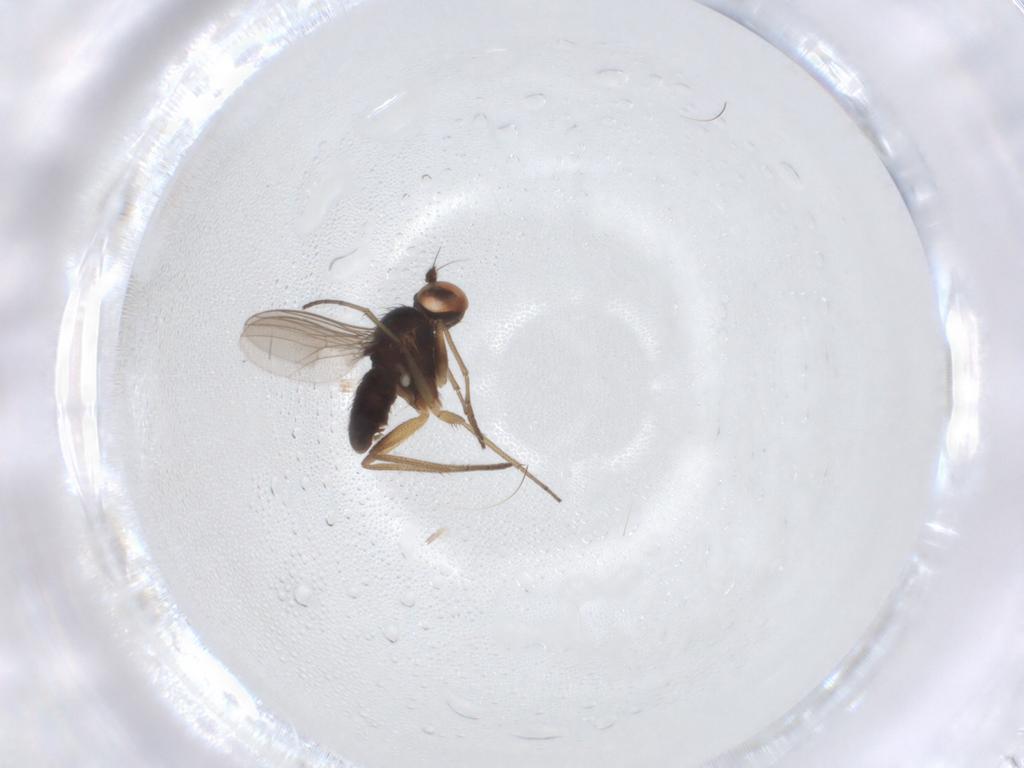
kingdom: Animalia
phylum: Arthropoda
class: Insecta
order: Diptera
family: Dolichopodidae
